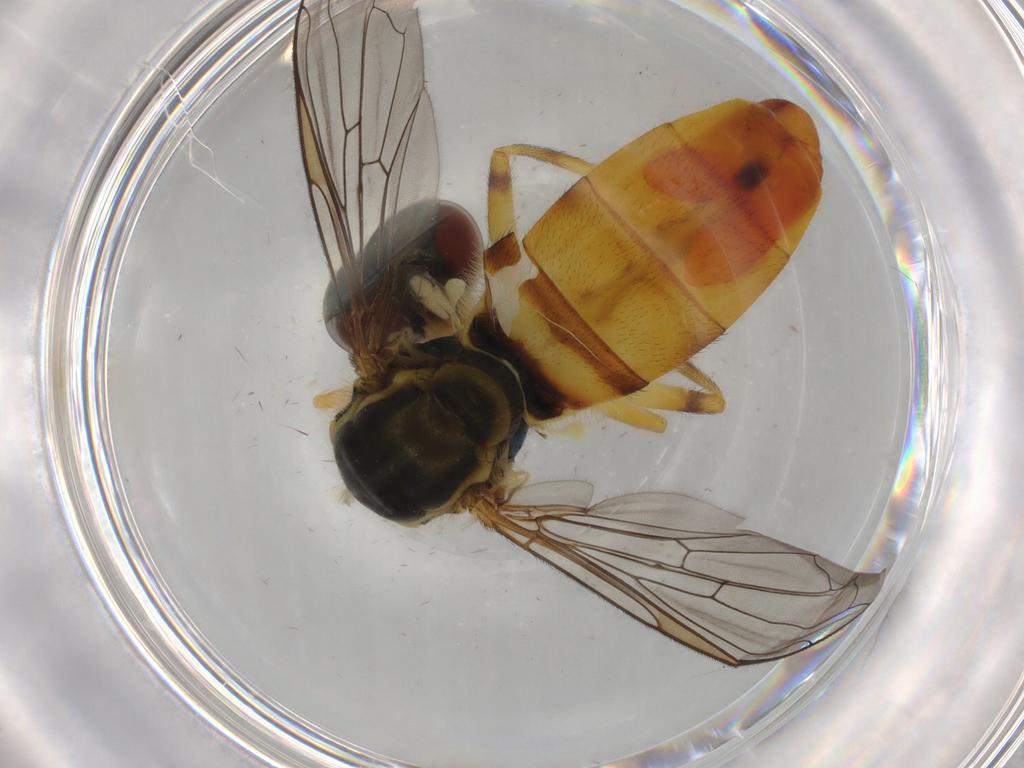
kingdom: Animalia
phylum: Arthropoda
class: Insecta
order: Diptera
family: Syrphidae
